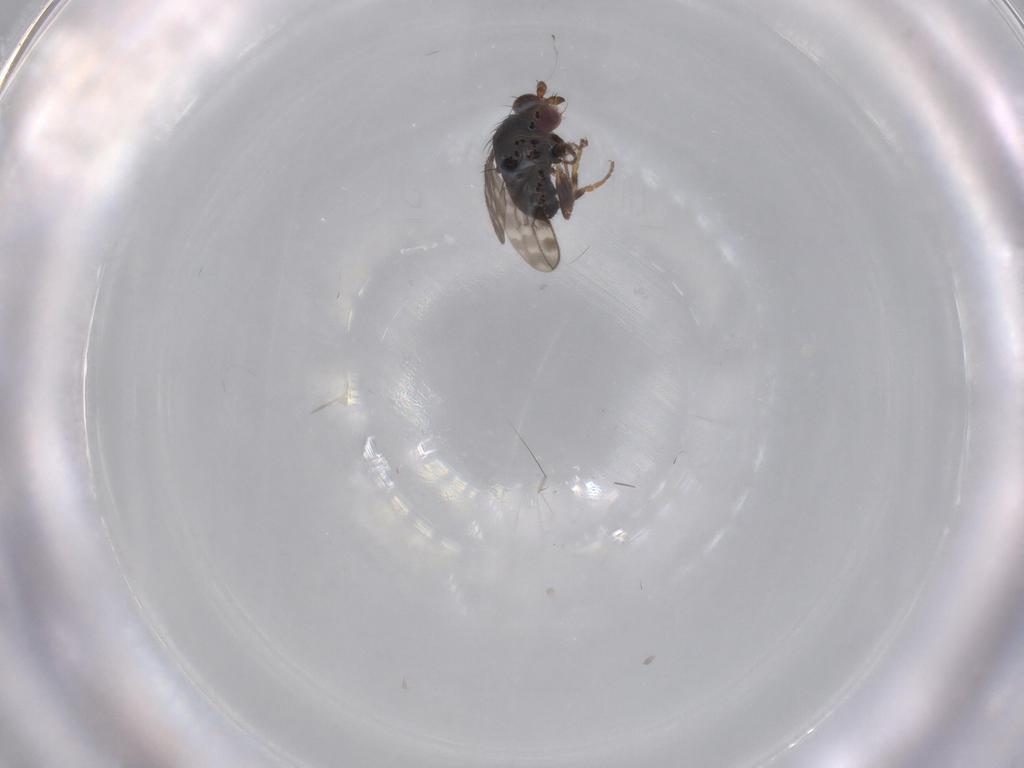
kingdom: Animalia
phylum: Arthropoda
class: Insecta
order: Diptera
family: Sphaeroceridae
